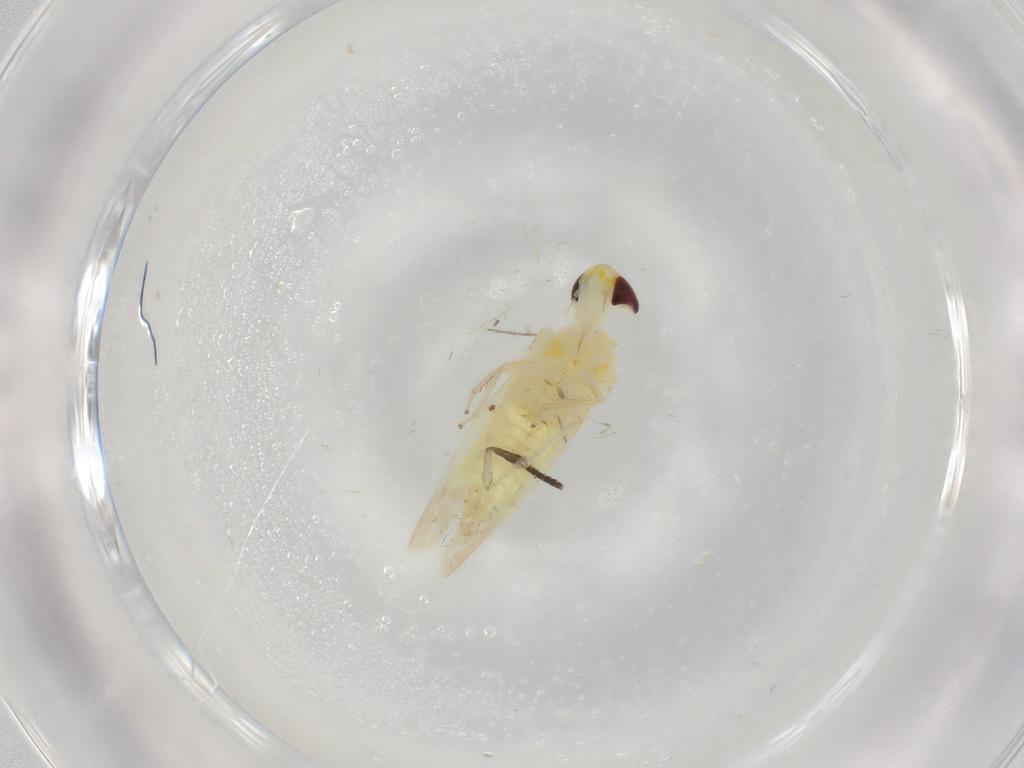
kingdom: Animalia
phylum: Arthropoda
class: Insecta
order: Hemiptera
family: Cicadellidae
